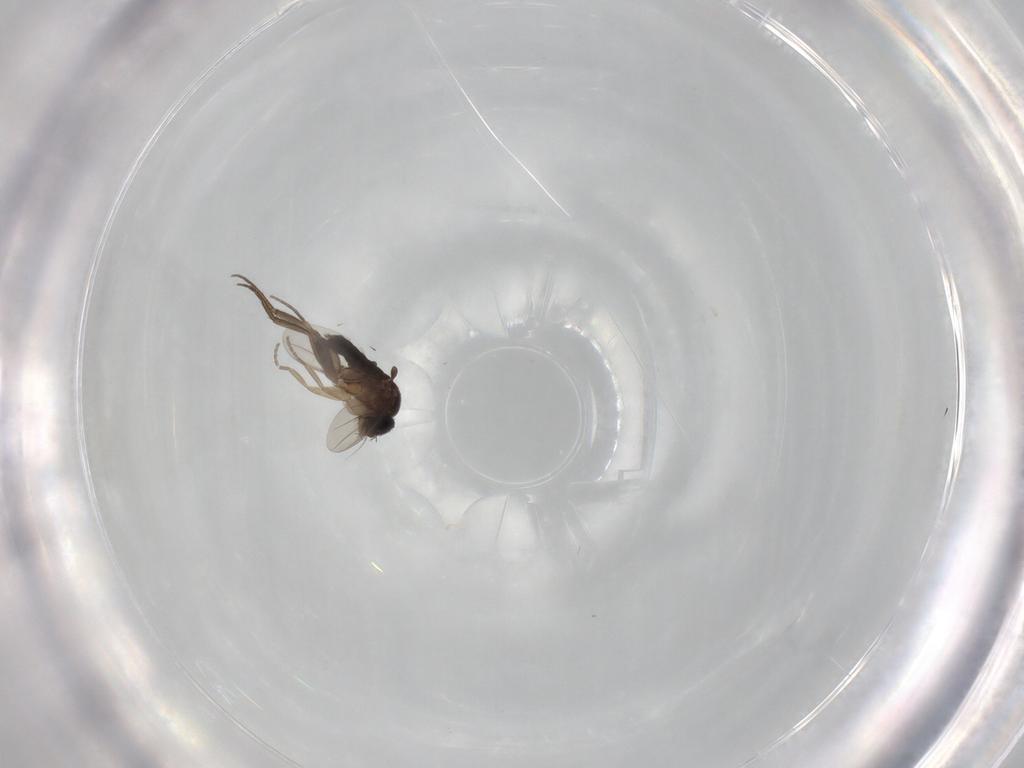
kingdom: Animalia
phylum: Arthropoda
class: Insecta
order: Diptera
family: Phoridae
